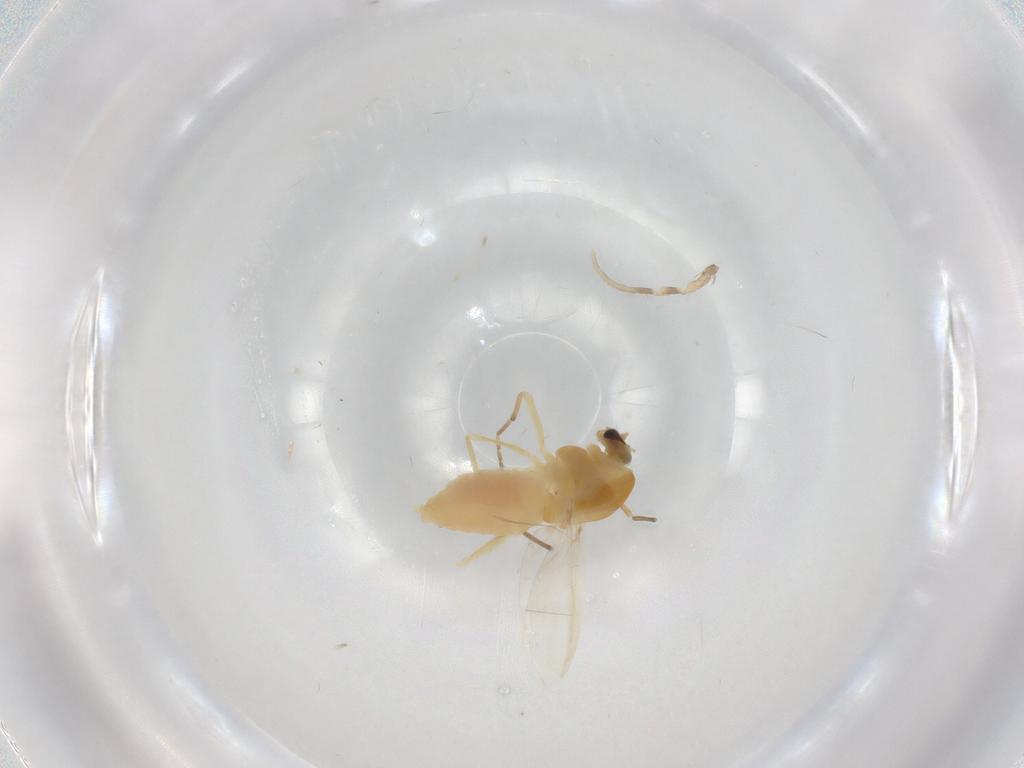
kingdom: Animalia
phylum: Arthropoda
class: Insecta
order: Diptera
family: Chironomidae
